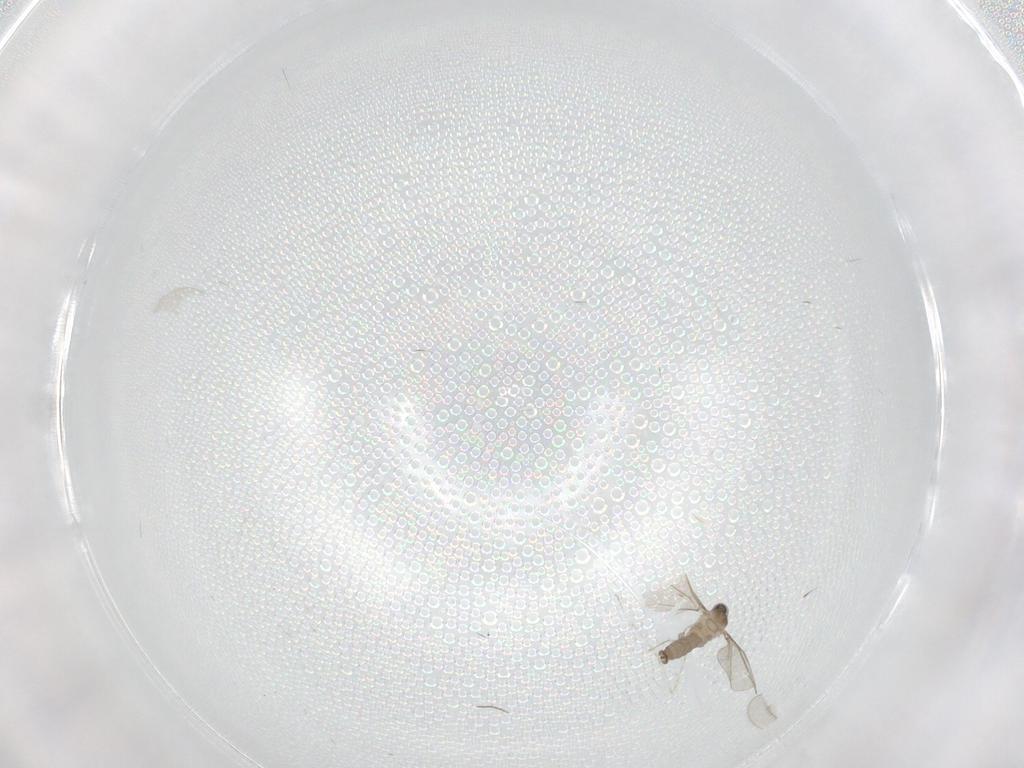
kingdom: Animalia
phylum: Arthropoda
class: Insecta
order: Diptera
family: Cecidomyiidae
